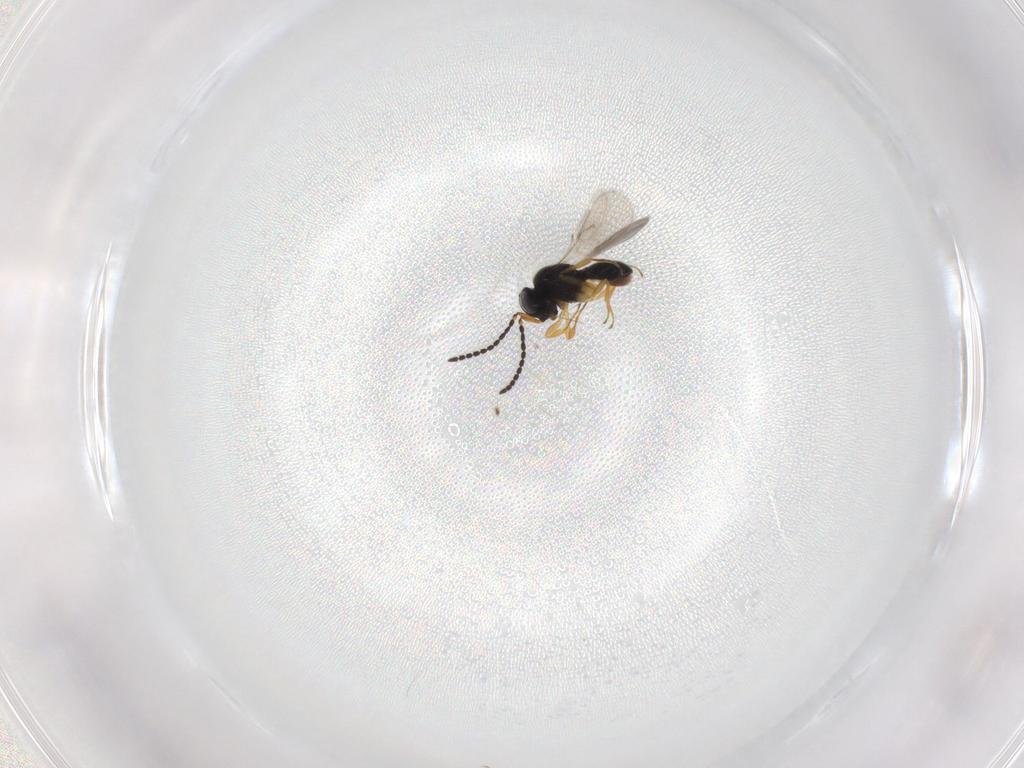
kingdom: Animalia
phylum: Arthropoda
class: Insecta
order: Hymenoptera
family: Scelionidae
